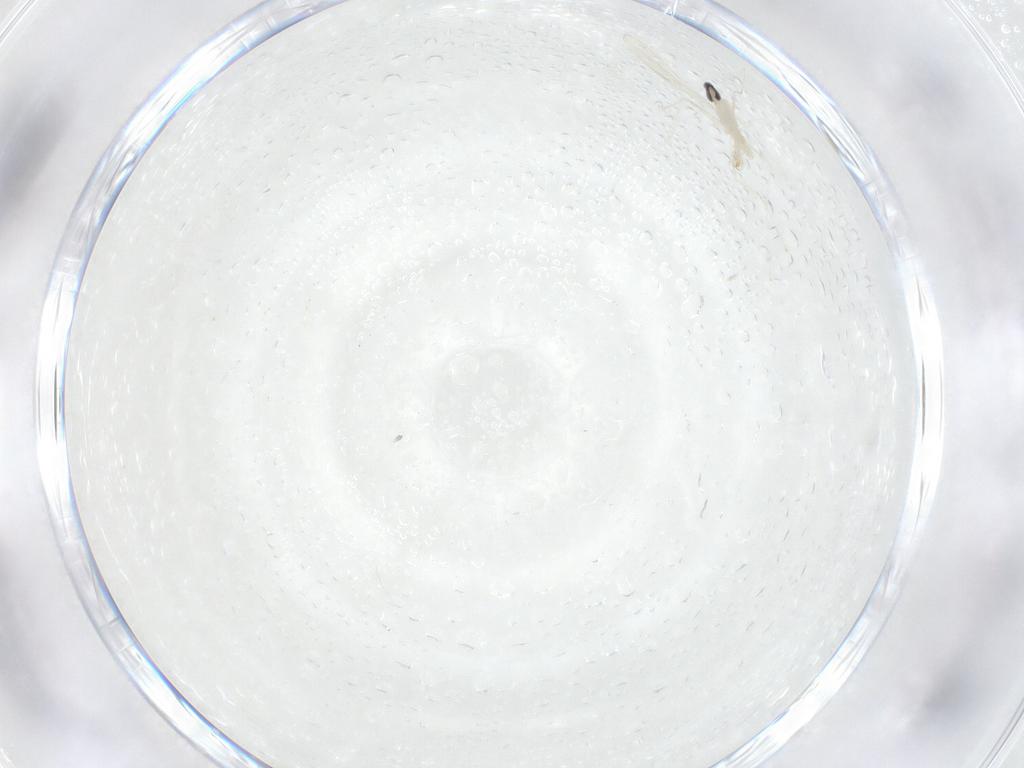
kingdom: Animalia
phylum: Arthropoda
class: Insecta
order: Diptera
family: Cecidomyiidae
